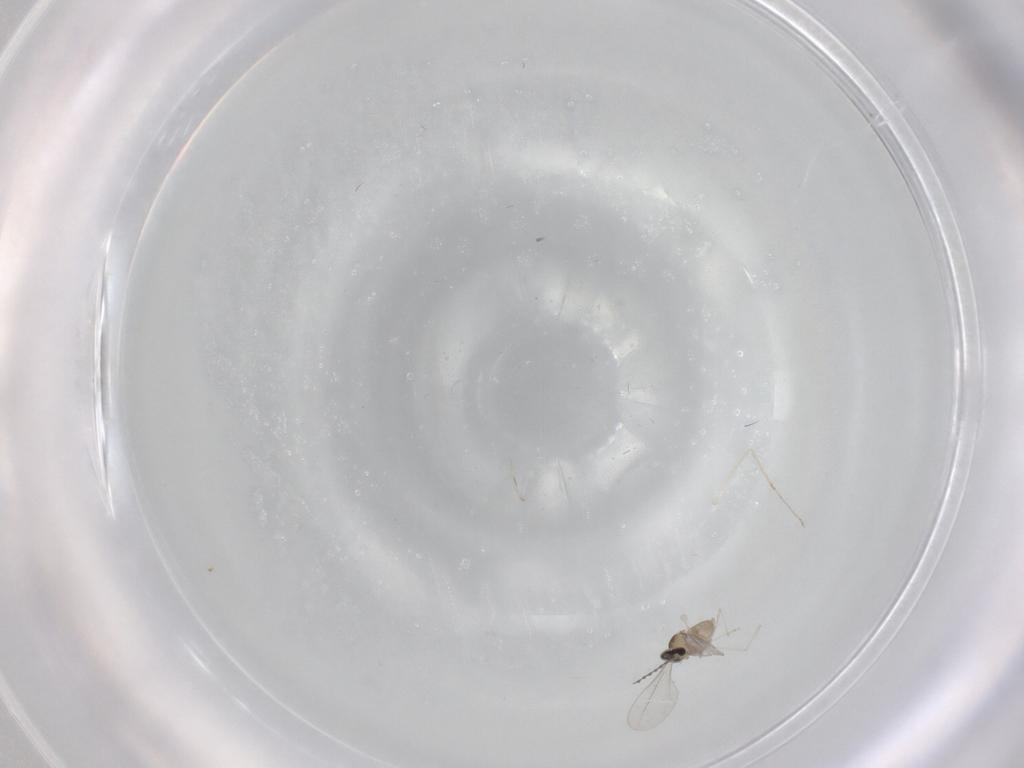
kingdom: Animalia
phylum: Arthropoda
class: Insecta
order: Diptera
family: Cecidomyiidae
